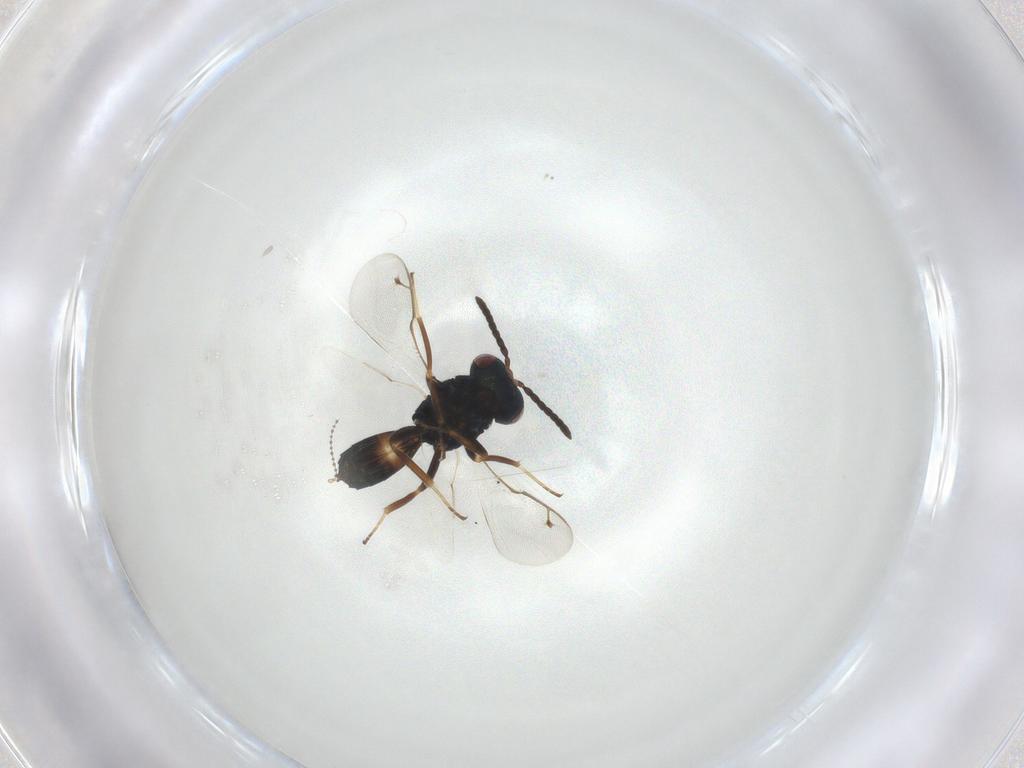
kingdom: Animalia
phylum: Arthropoda
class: Insecta
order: Hymenoptera
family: Pteromalidae
